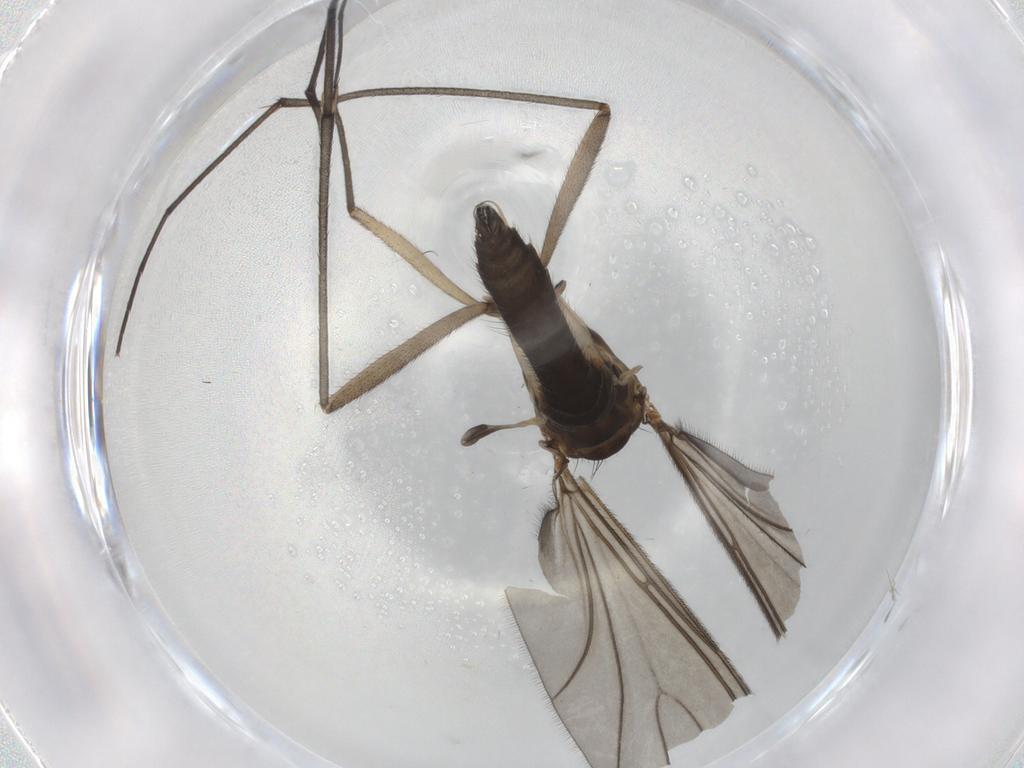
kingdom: Animalia
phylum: Arthropoda
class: Insecta
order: Diptera
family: Sciaridae
